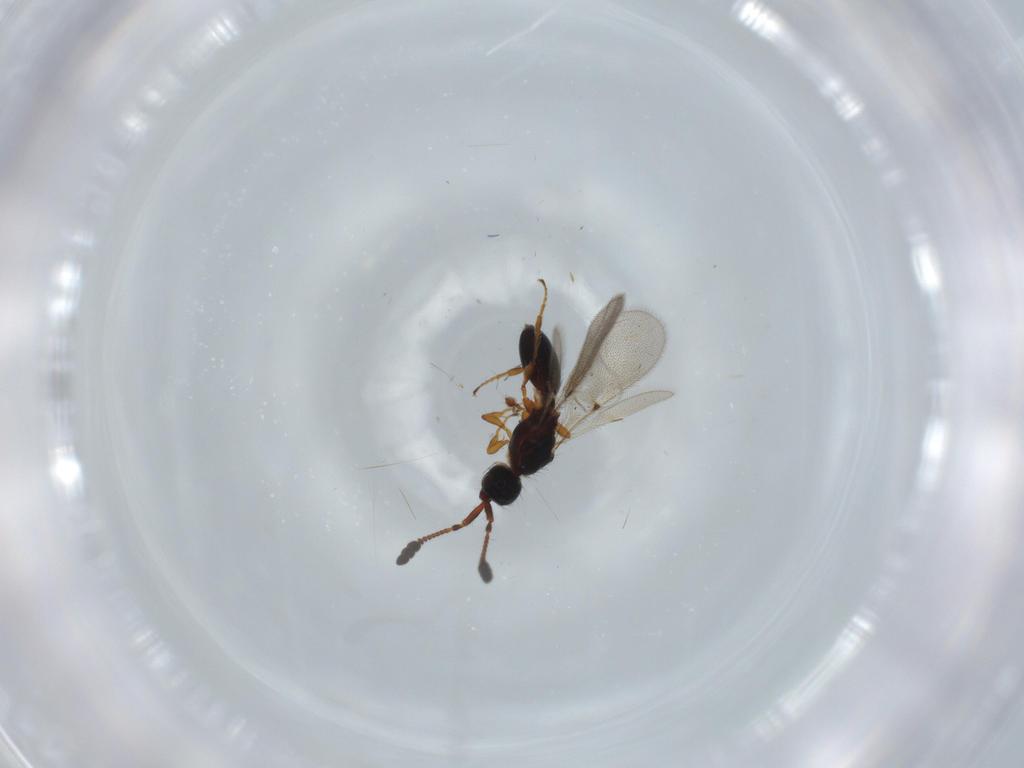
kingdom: Animalia
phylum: Arthropoda
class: Insecta
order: Hymenoptera
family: Diapriidae
